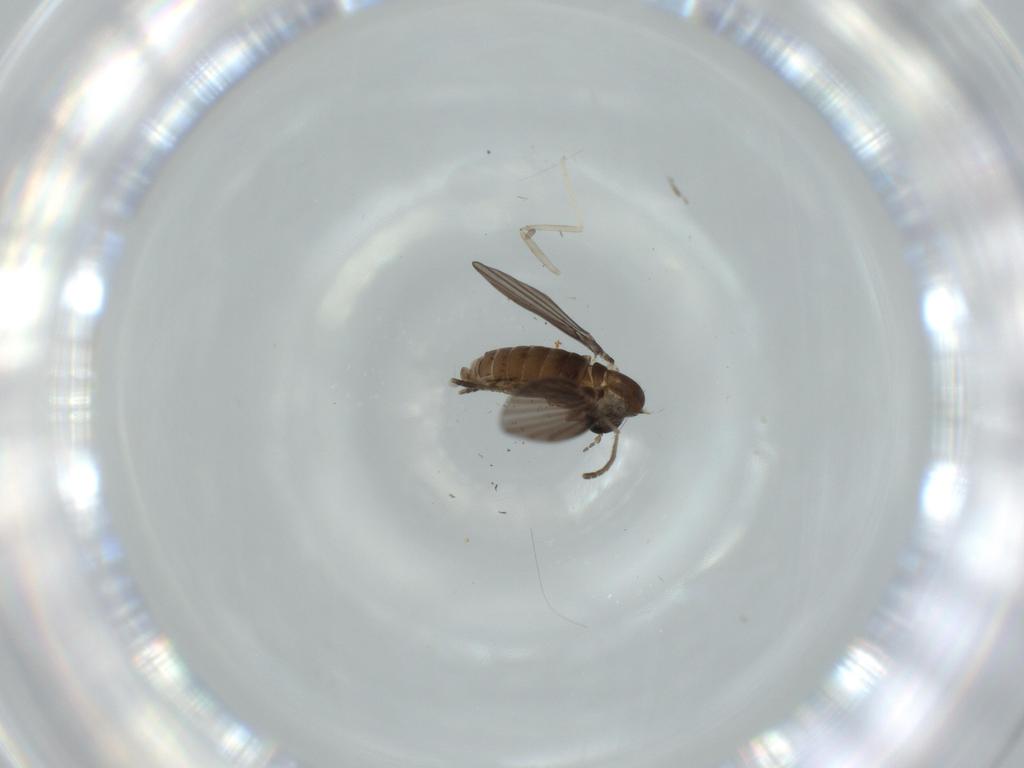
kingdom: Animalia
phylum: Arthropoda
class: Insecta
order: Diptera
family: Psychodidae
